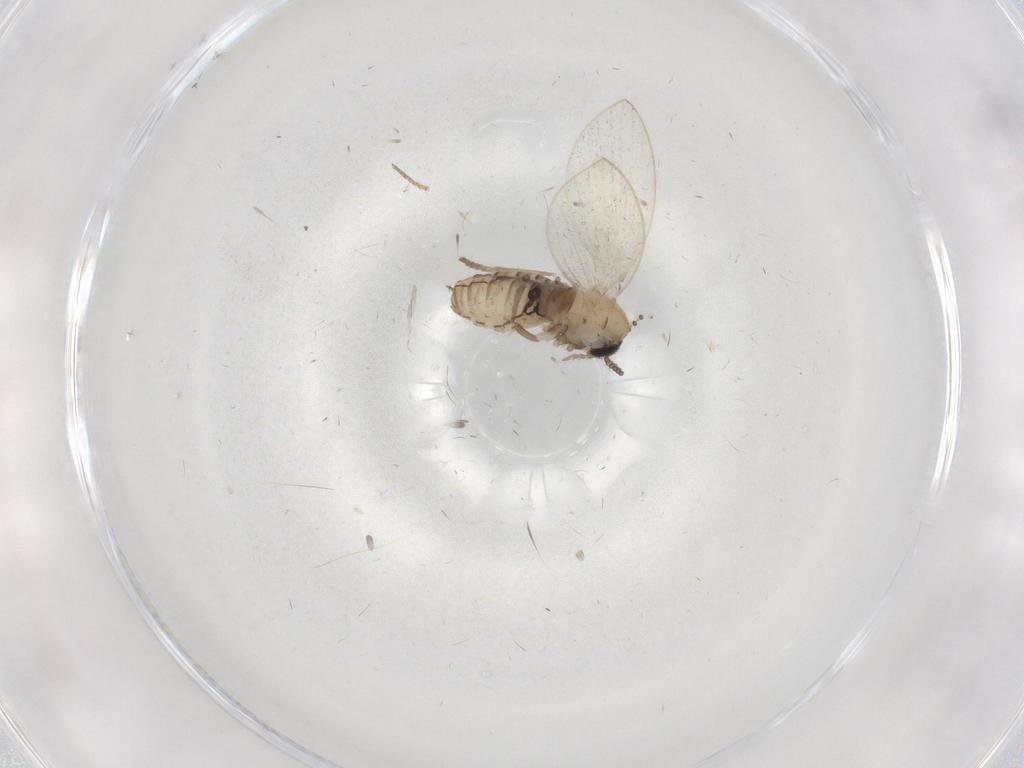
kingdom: Animalia
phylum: Arthropoda
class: Insecta
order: Diptera
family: Psychodidae
